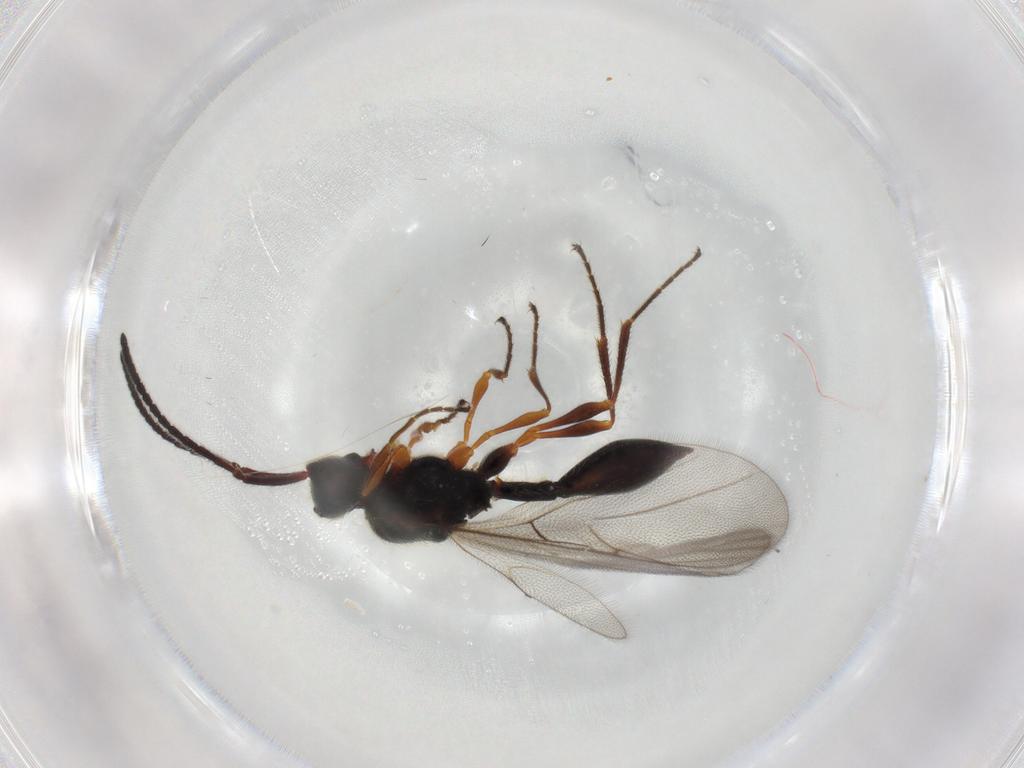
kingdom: Animalia
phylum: Arthropoda
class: Insecta
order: Hymenoptera
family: Diapriidae
